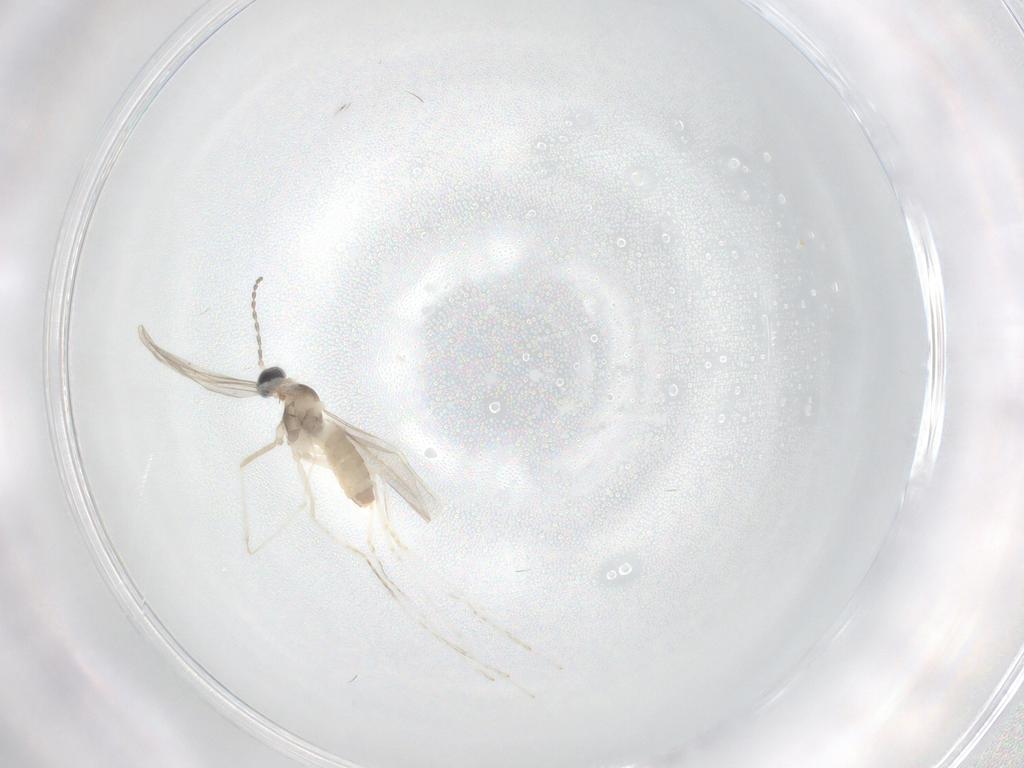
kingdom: Animalia
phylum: Arthropoda
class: Insecta
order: Diptera
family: Cecidomyiidae
